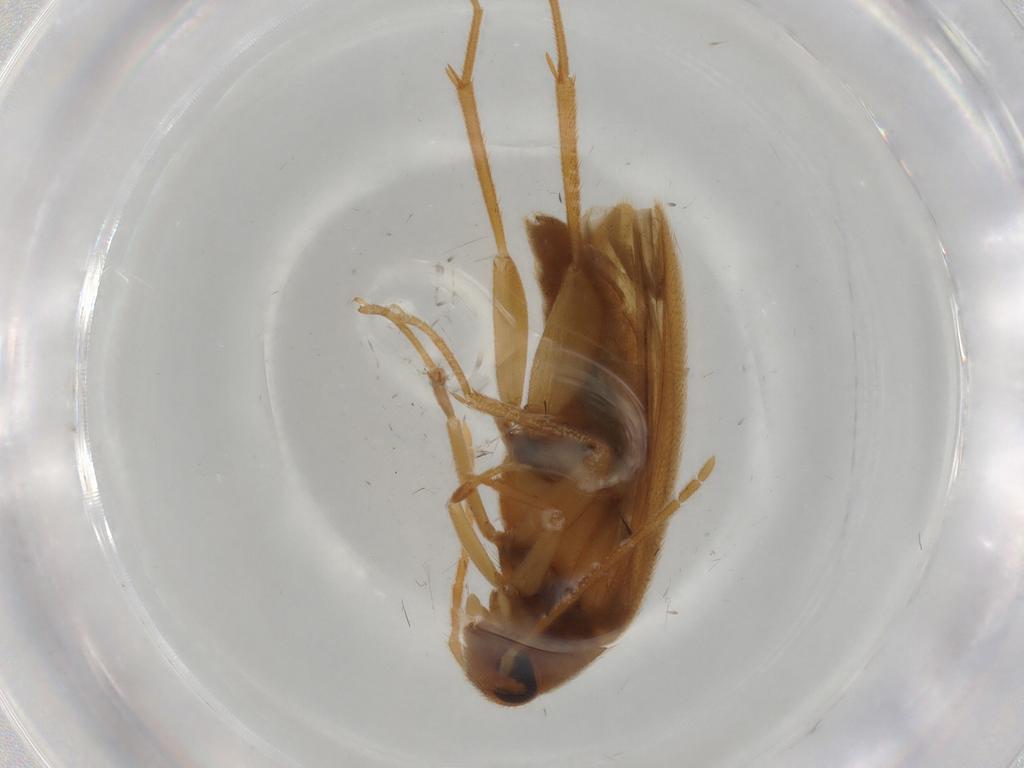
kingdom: Animalia
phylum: Arthropoda
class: Insecta
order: Coleoptera
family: Scraptiidae
